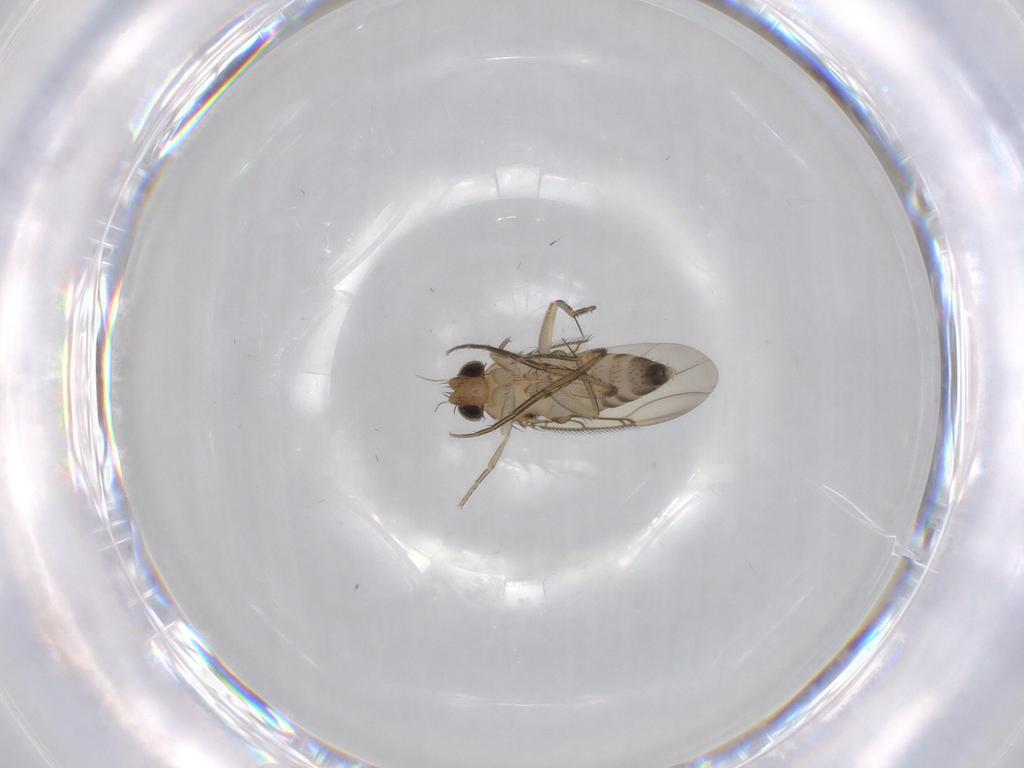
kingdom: Animalia
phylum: Arthropoda
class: Insecta
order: Diptera
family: Phoridae
